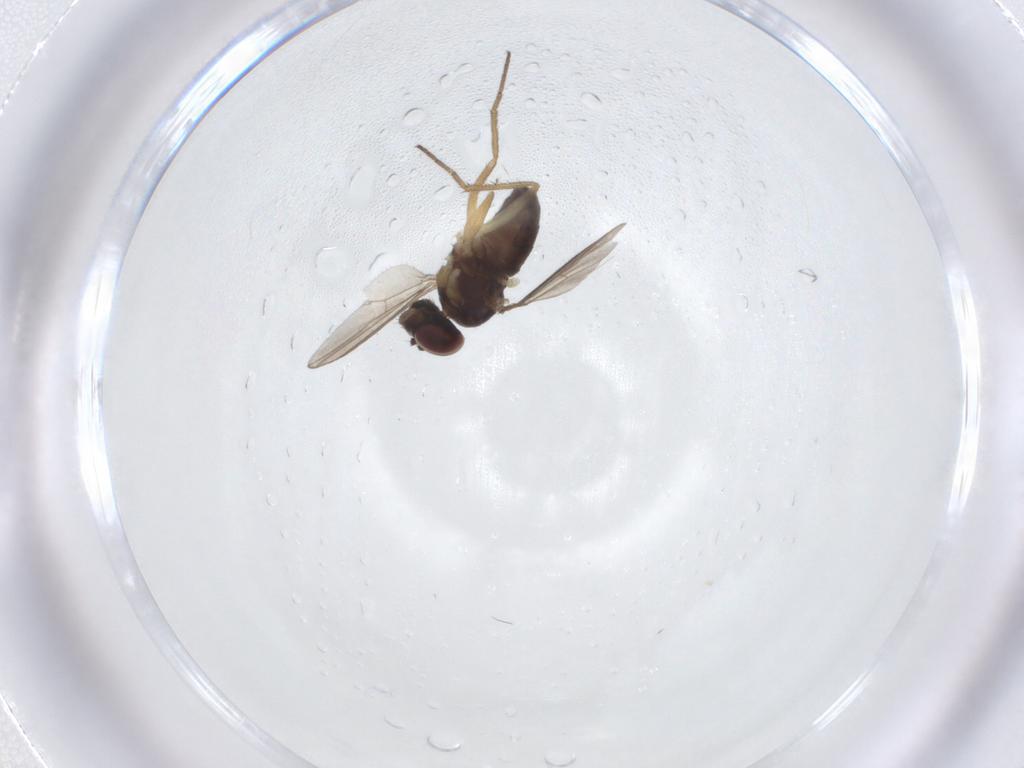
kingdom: Animalia
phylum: Arthropoda
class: Insecta
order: Diptera
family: Dolichopodidae
